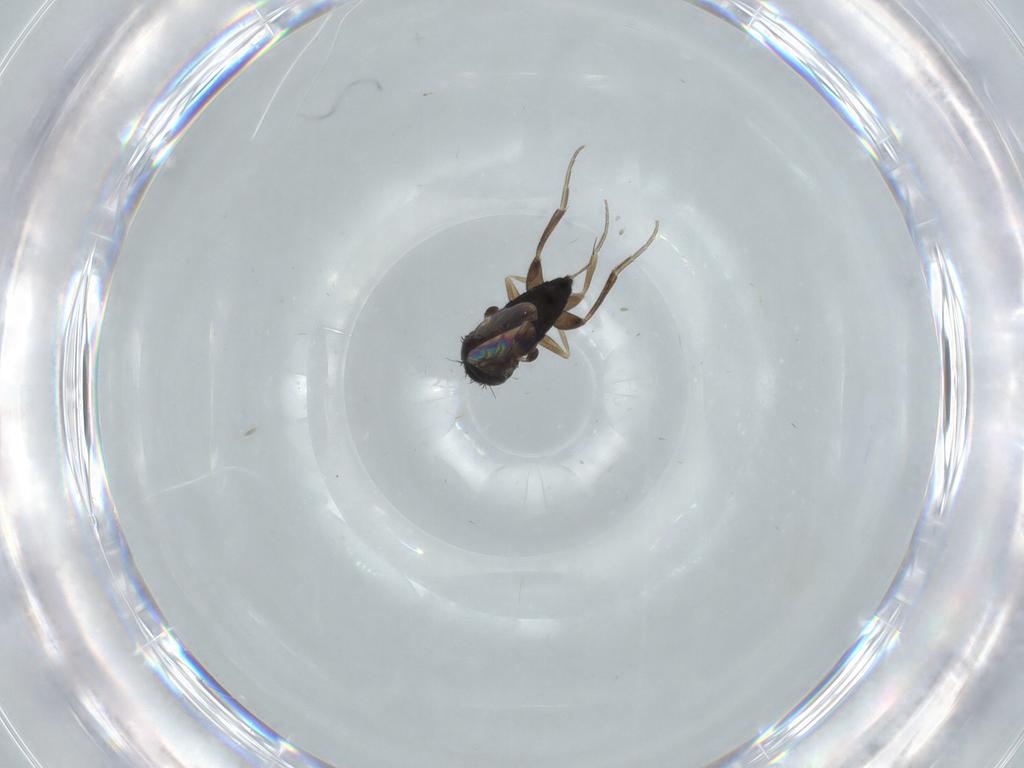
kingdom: Animalia
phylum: Arthropoda
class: Insecta
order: Diptera
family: Phoridae
